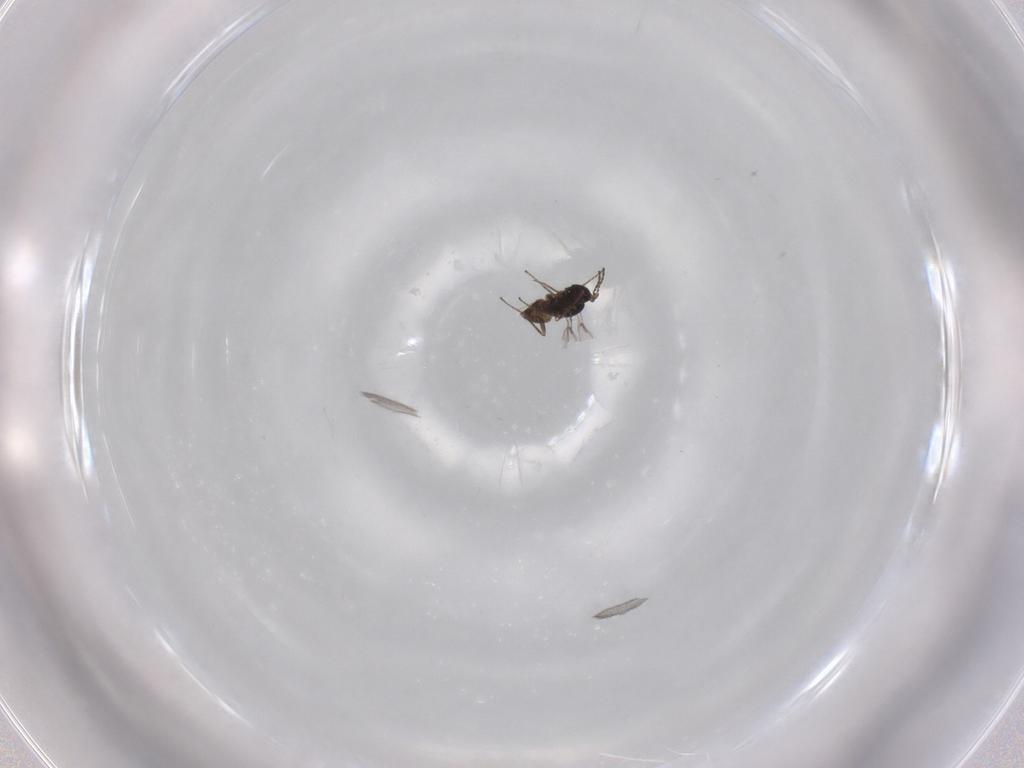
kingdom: Animalia
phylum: Arthropoda
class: Insecta
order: Hymenoptera
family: Mymaridae
